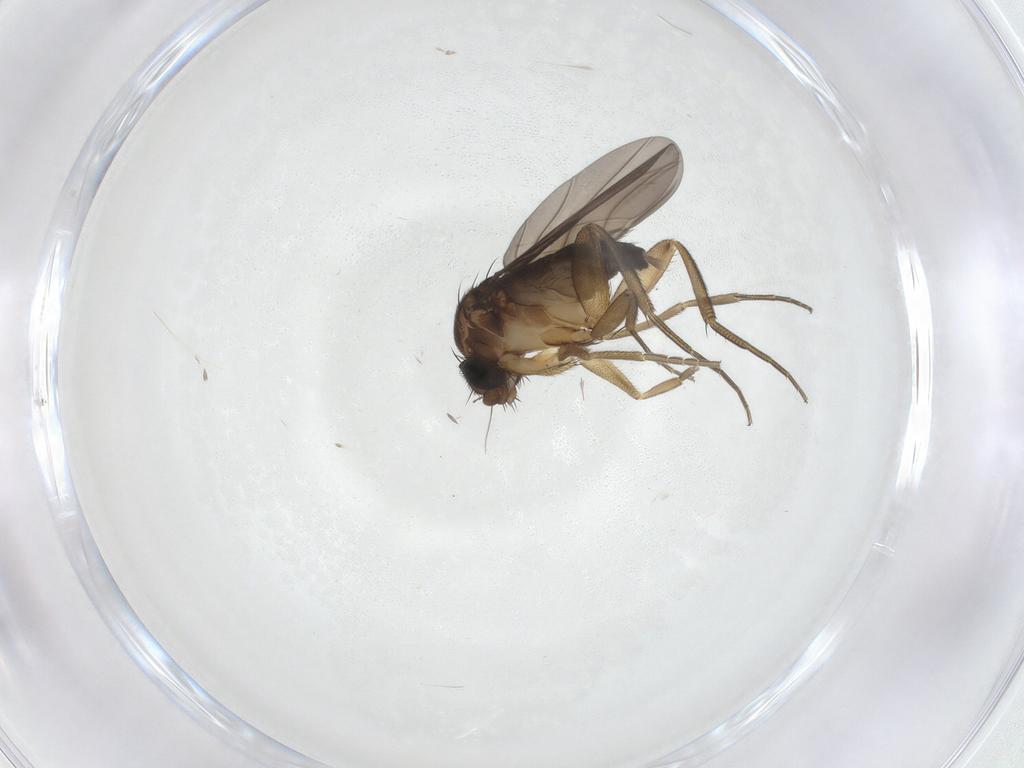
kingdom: Animalia
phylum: Arthropoda
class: Insecta
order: Diptera
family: Phoridae
